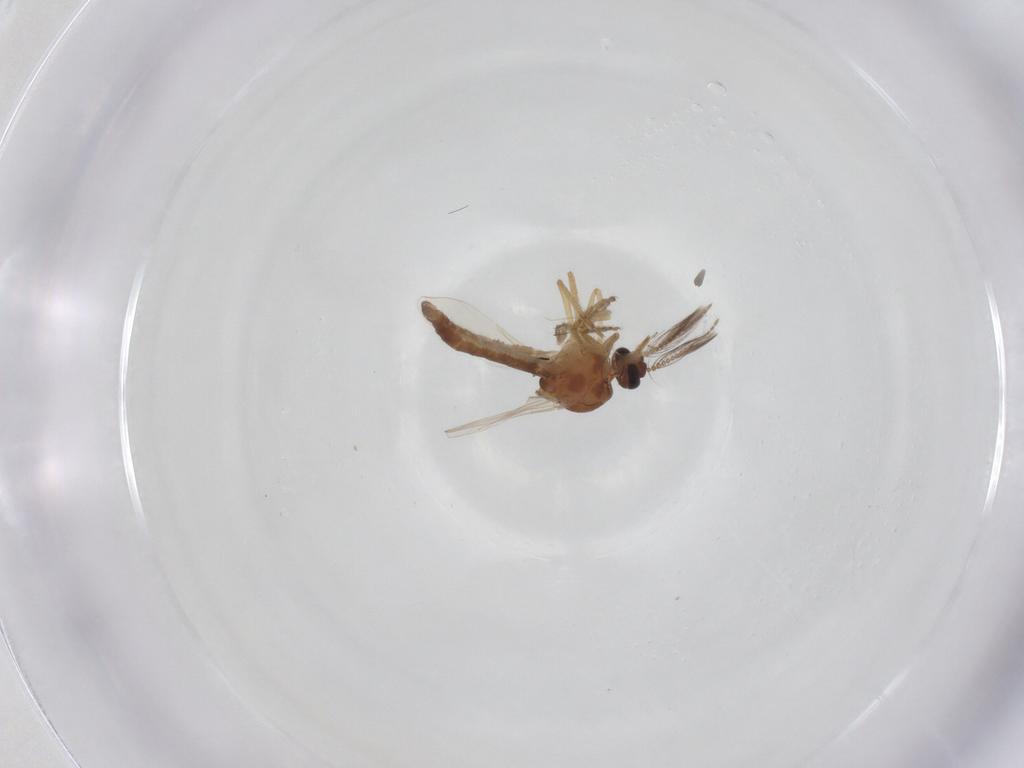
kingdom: Animalia
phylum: Arthropoda
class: Insecta
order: Diptera
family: Ceratopogonidae
